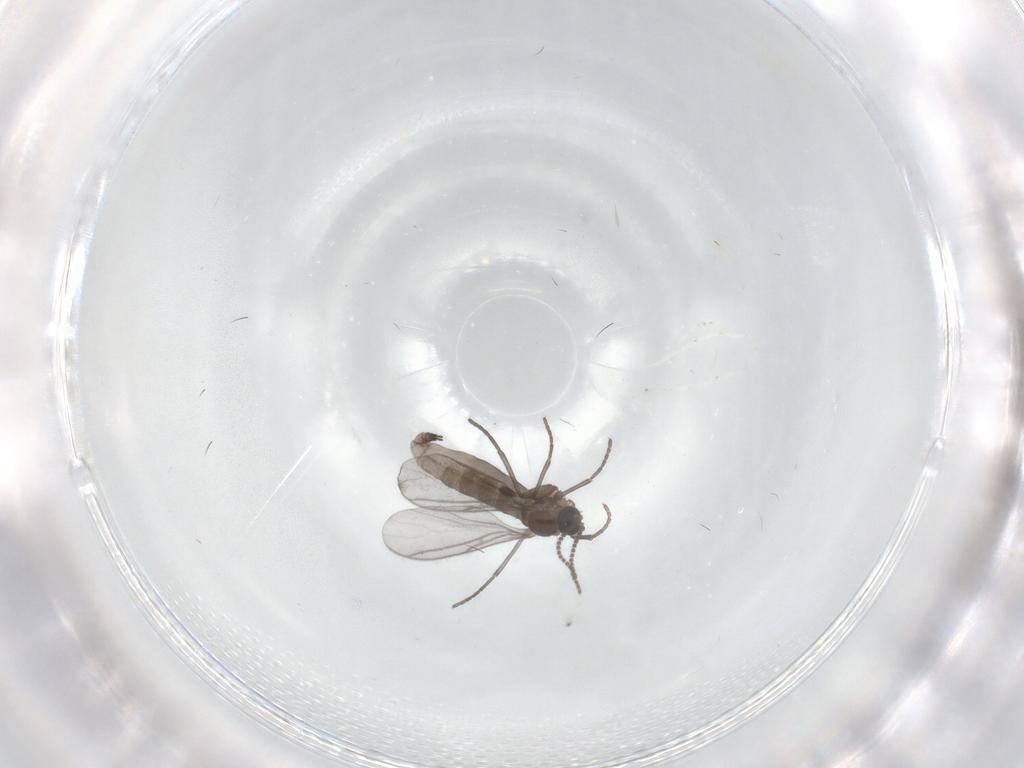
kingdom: Animalia
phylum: Arthropoda
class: Insecta
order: Diptera
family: Sciaridae
